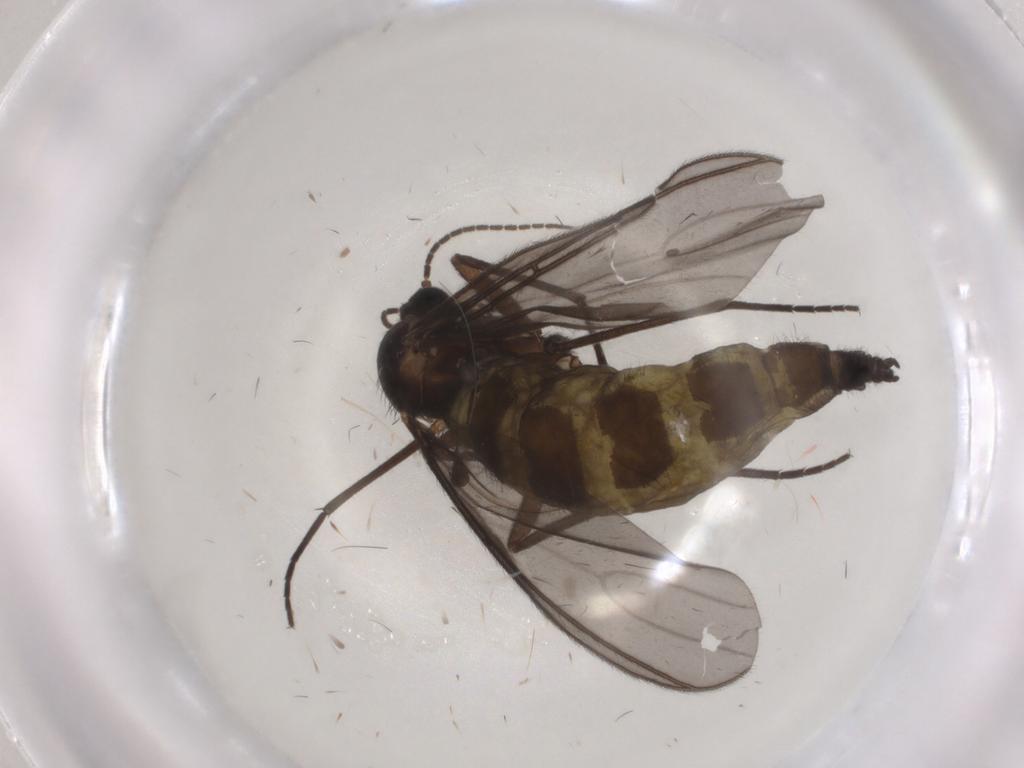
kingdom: Animalia
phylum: Arthropoda
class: Insecta
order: Diptera
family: Sciaridae
